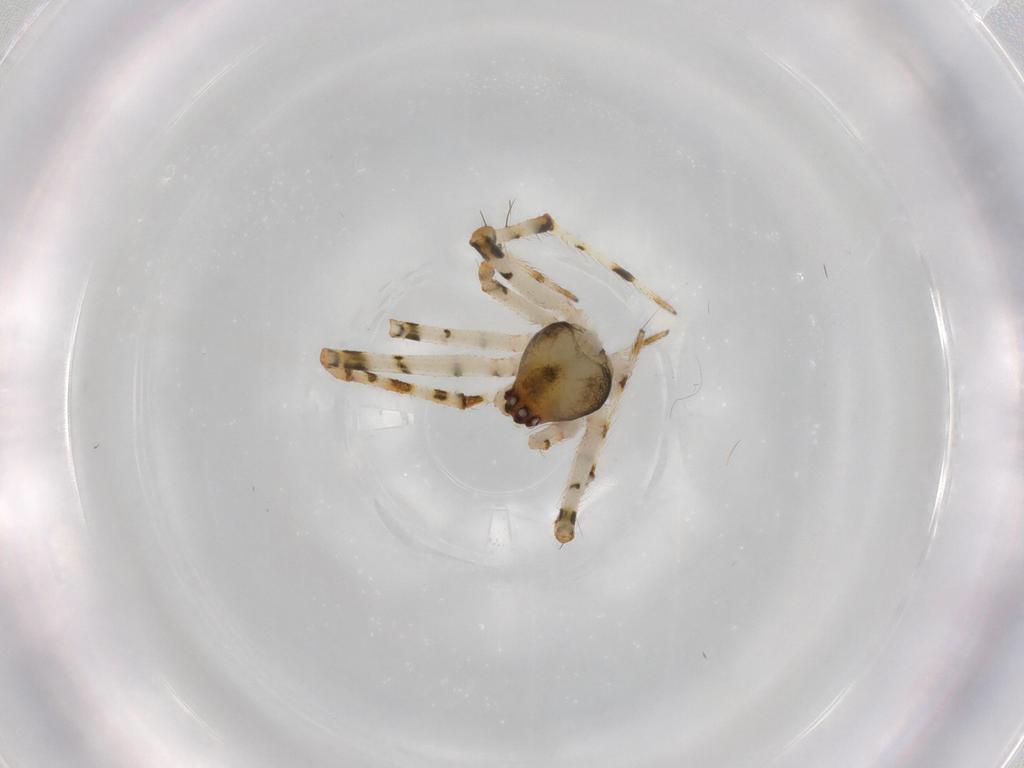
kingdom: Animalia
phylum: Arthropoda
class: Arachnida
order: Araneae
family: Theridiidae
